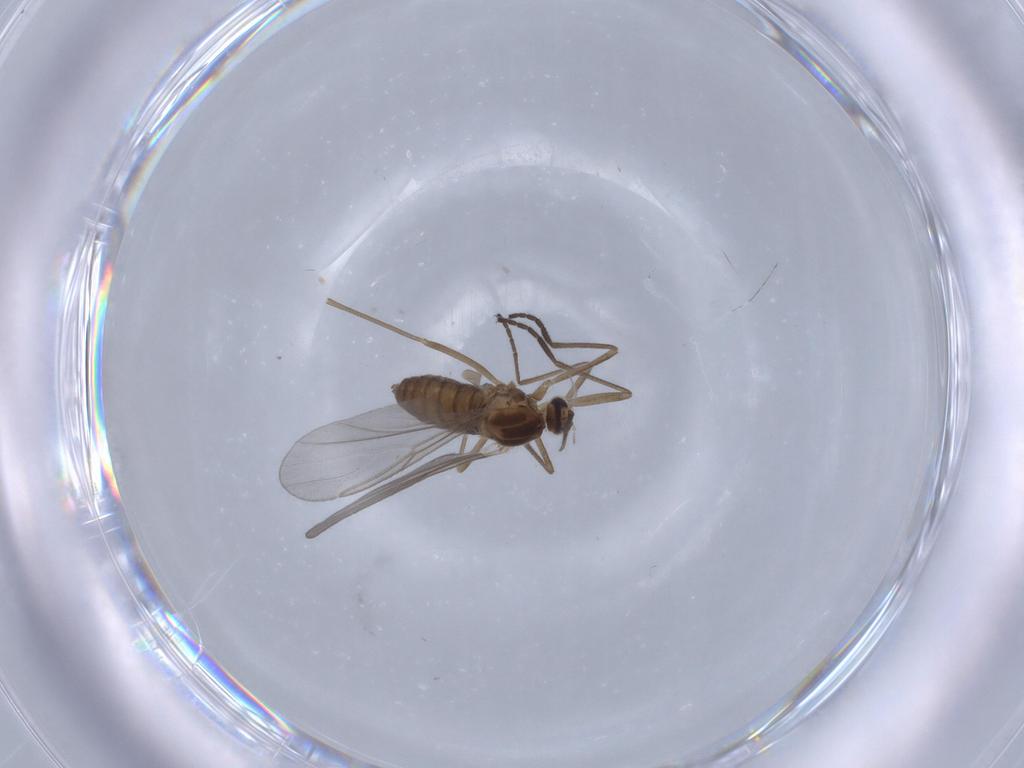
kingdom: Animalia
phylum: Arthropoda
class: Insecta
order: Diptera
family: Cecidomyiidae
